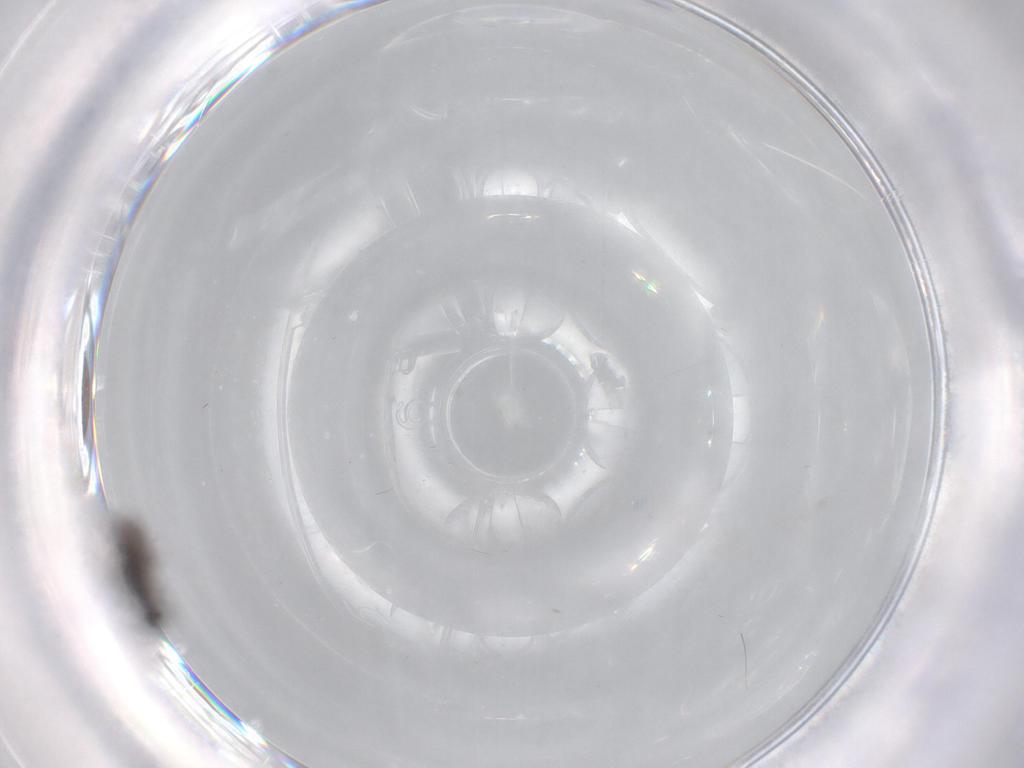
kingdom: Animalia
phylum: Arthropoda
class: Insecta
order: Diptera
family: Ceratopogonidae
